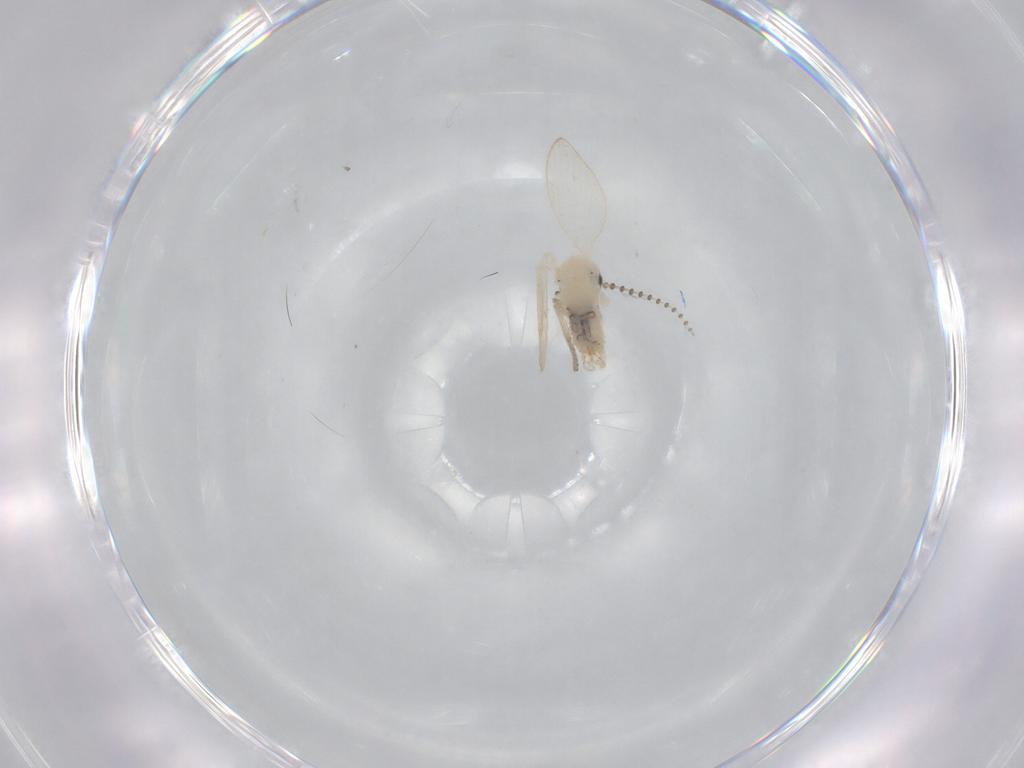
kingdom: Animalia
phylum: Arthropoda
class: Insecta
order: Diptera
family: Psychodidae
